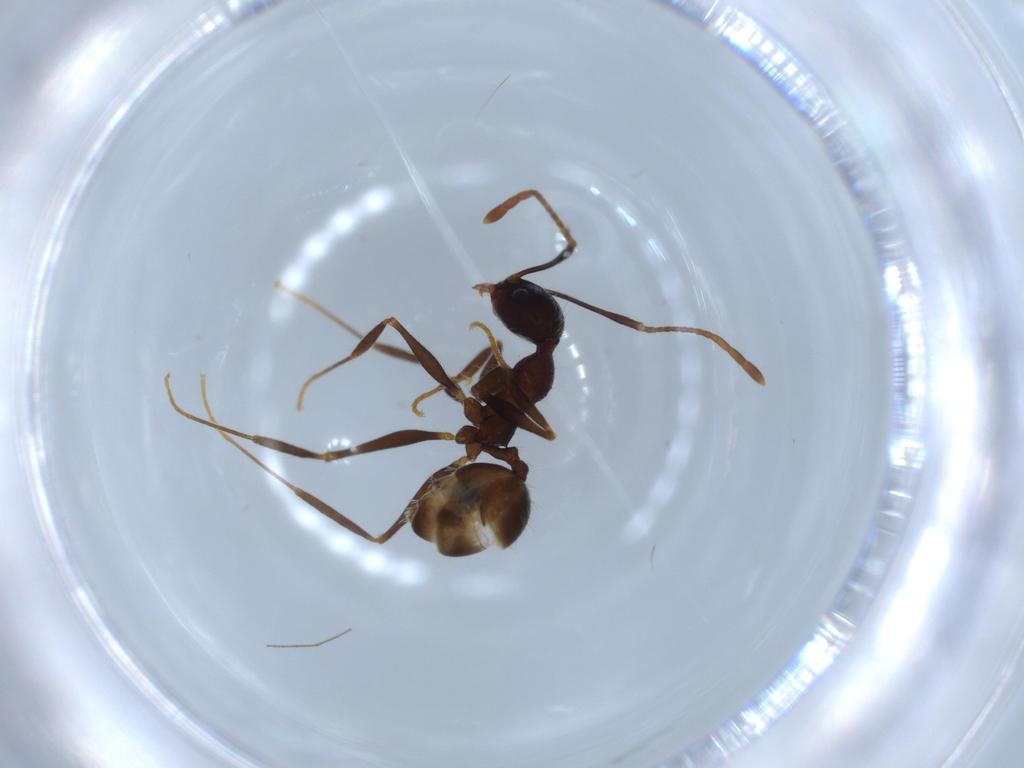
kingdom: Animalia
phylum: Arthropoda
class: Insecta
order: Hymenoptera
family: Formicidae
